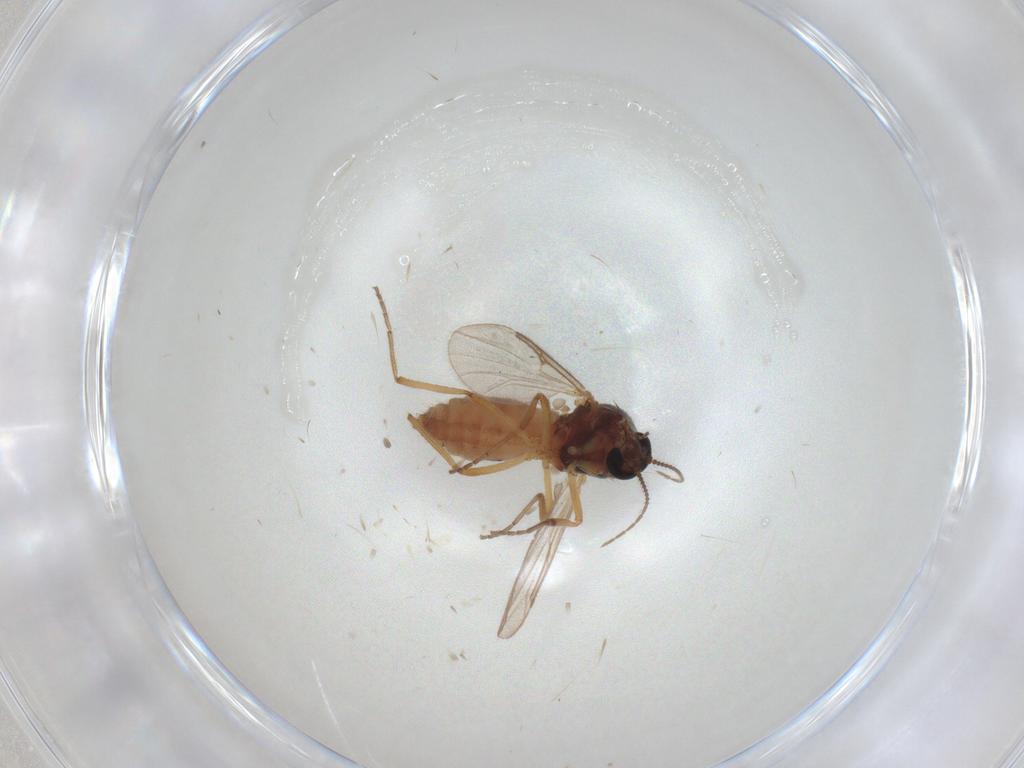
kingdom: Animalia
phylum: Arthropoda
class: Insecta
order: Diptera
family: Ceratopogonidae
